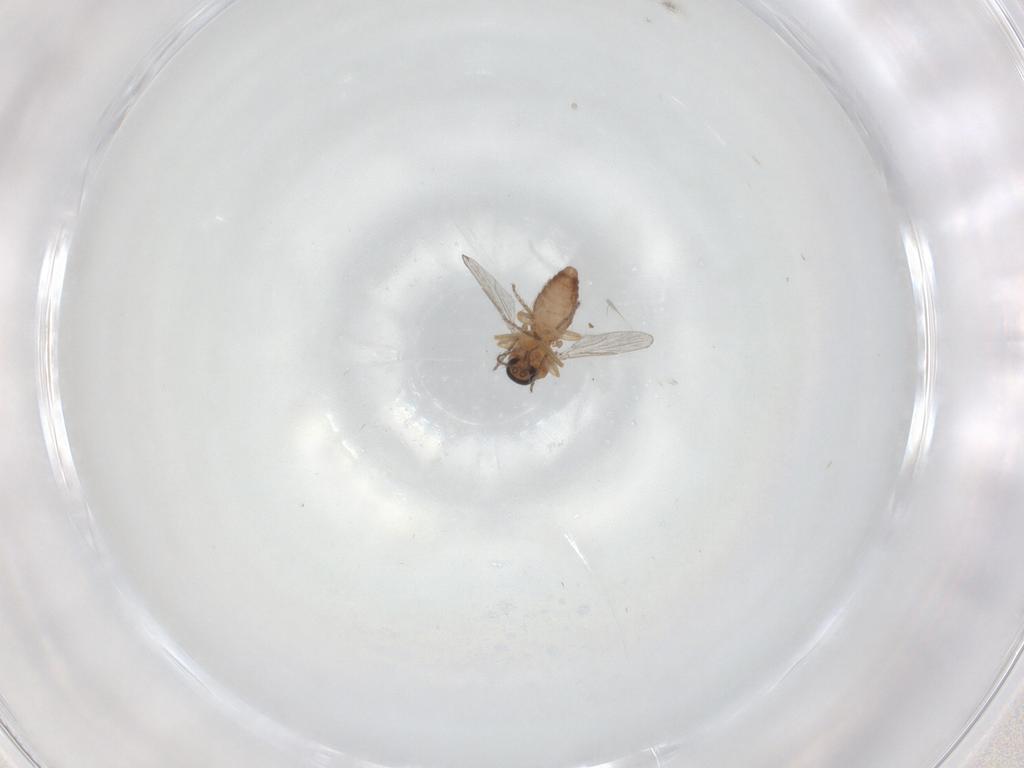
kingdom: Animalia
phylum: Arthropoda
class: Insecta
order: Diptera
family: Ceratopogonidae
